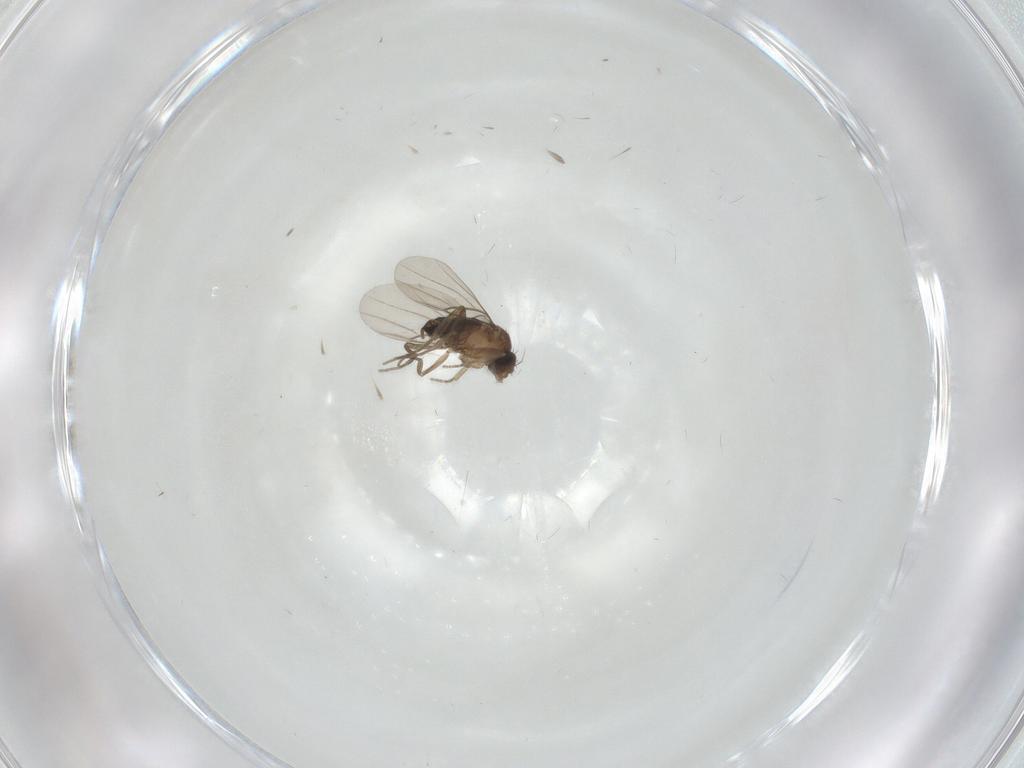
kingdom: Animalia
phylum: Arthropoda
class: Insecta
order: Diptera
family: Phoridae
